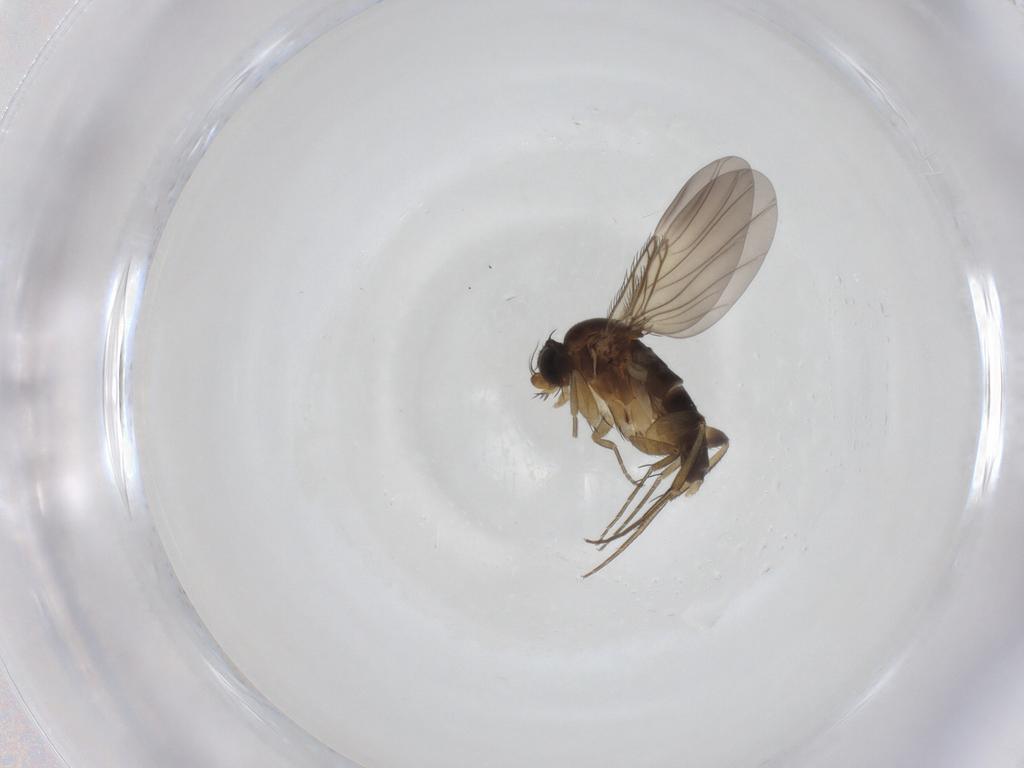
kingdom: Animalia
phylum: Arthropoda
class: Insecta
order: Diptera
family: Phoridae
